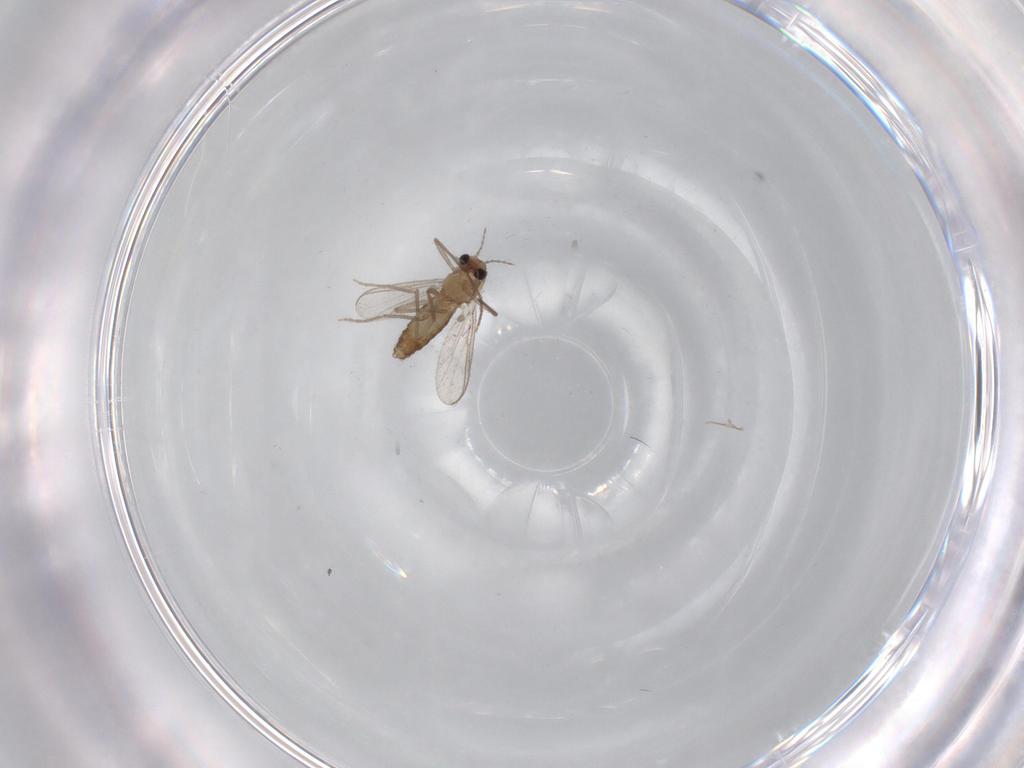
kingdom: Animalia
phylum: Arthropoda
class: Insecta
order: Diptera
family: Chironomidae
